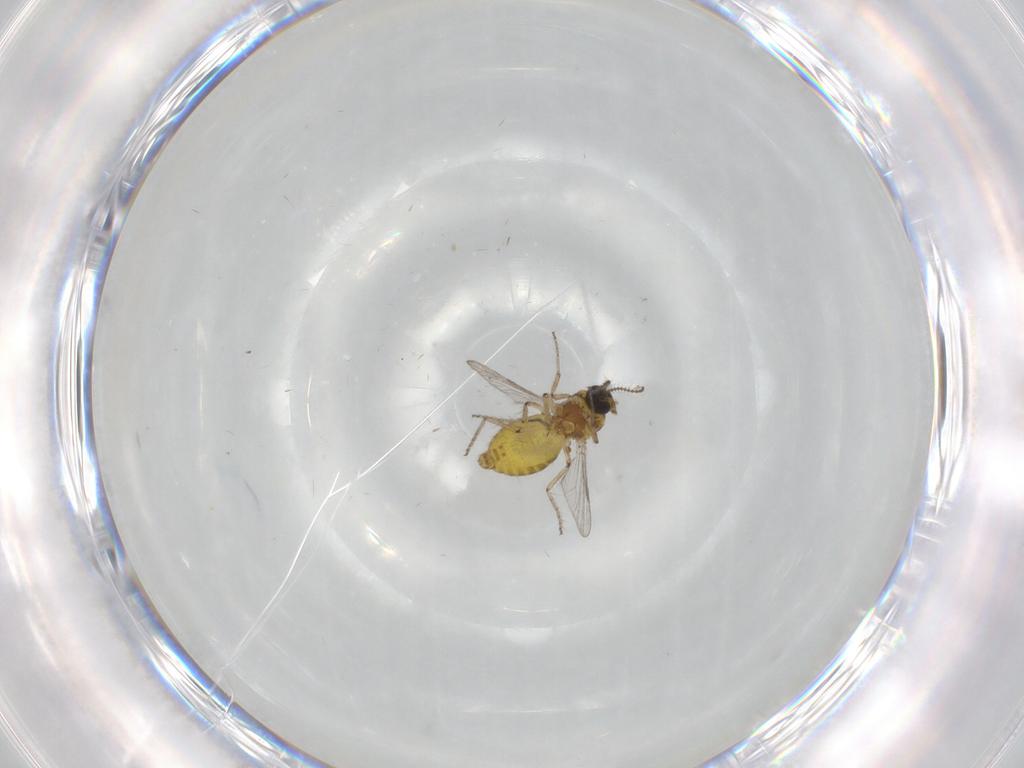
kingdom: Animalia
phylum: Arthropoda
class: Insecta
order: Diptera
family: Ceratopogonidae
